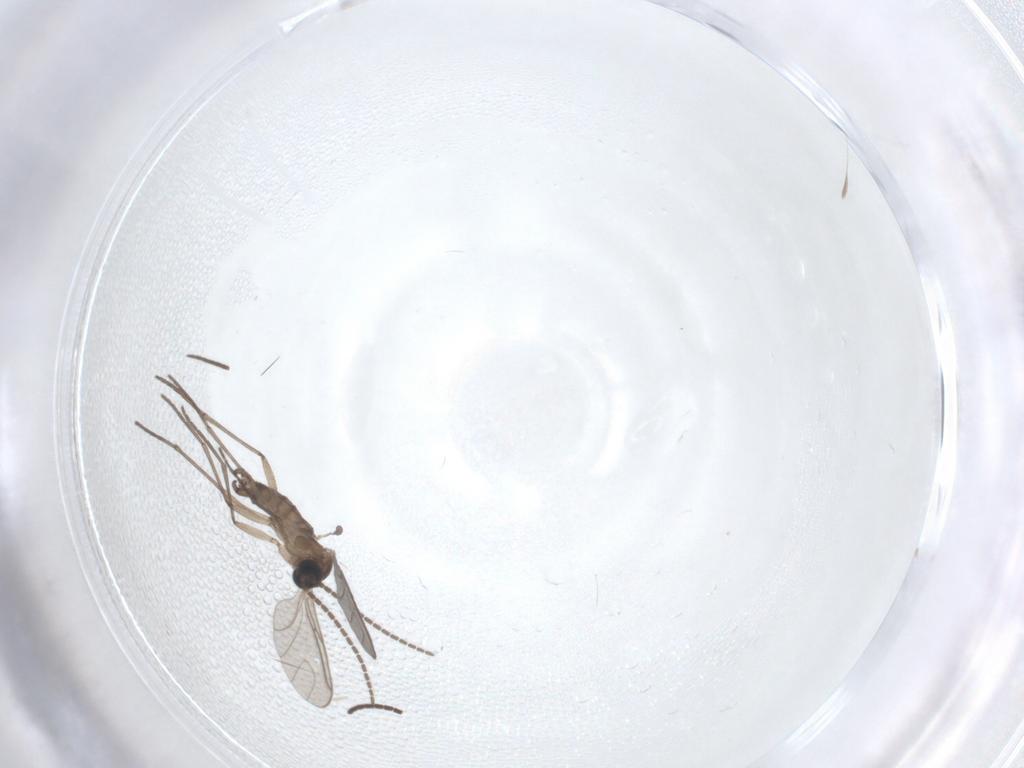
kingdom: Animalia
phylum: Arthropoda
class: Insecta
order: Diptera
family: Sciaridae
